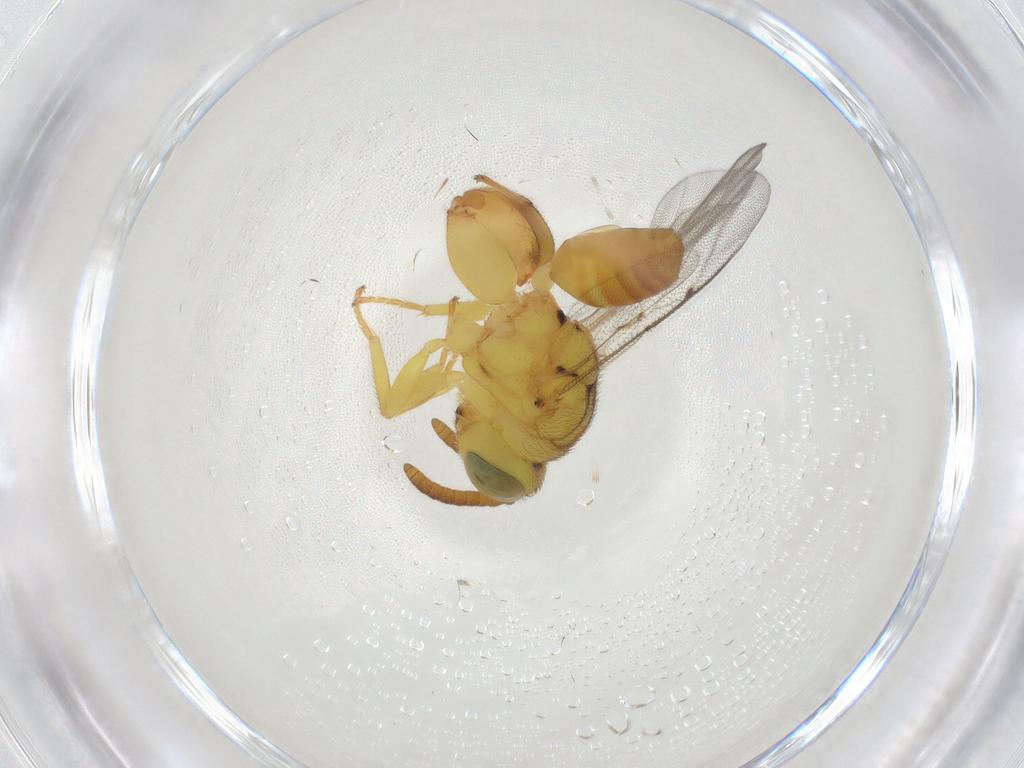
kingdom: Animalia
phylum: Arthropoda
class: Insecta
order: Hymenoptera
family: Chalcididae
